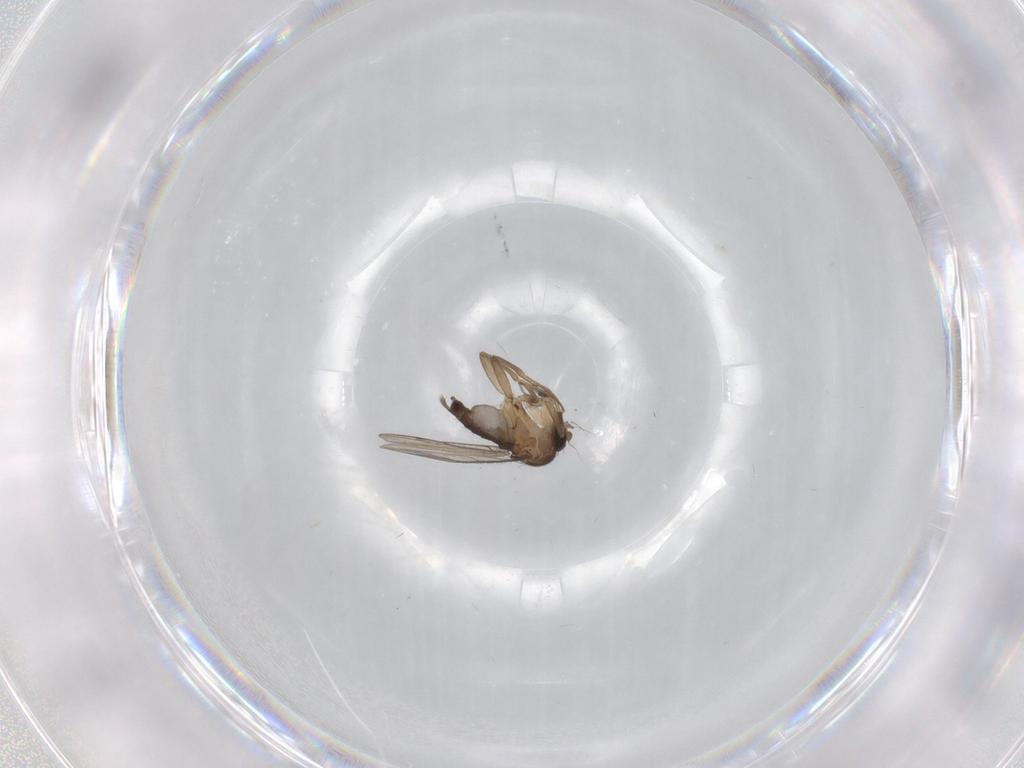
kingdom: Animalia
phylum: Arthropoda
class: Insecta
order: Diptera
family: Phoridae
